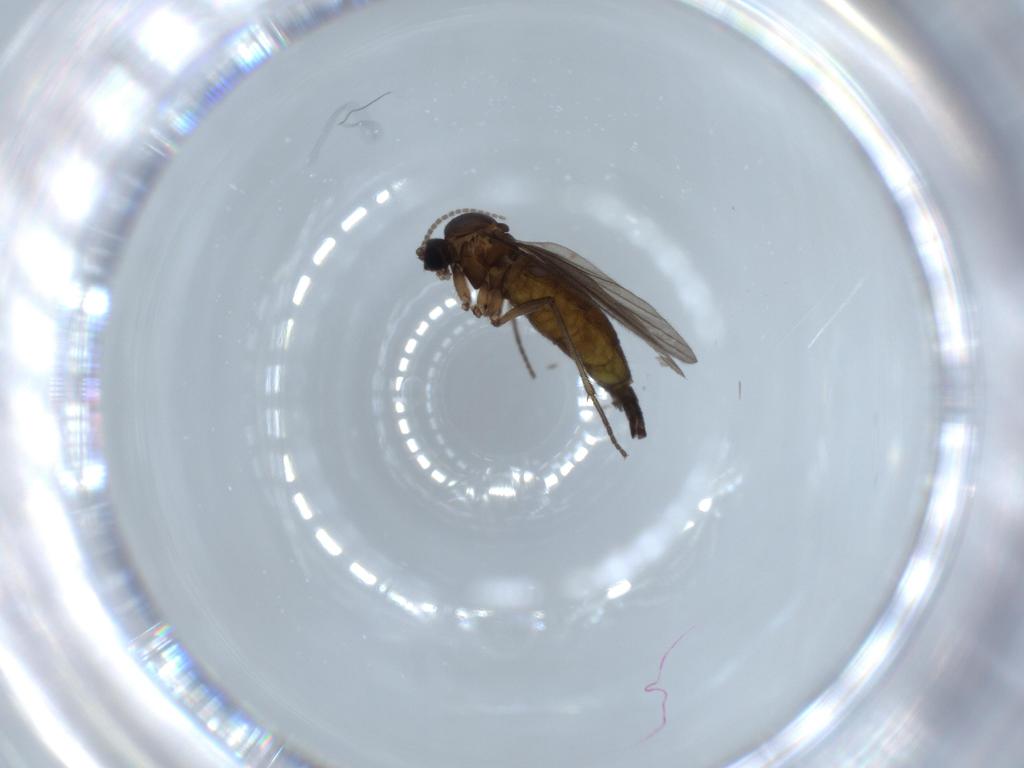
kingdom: Animalia
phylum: Arthropoda
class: Insecta
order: Diptera
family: Sciaridae
